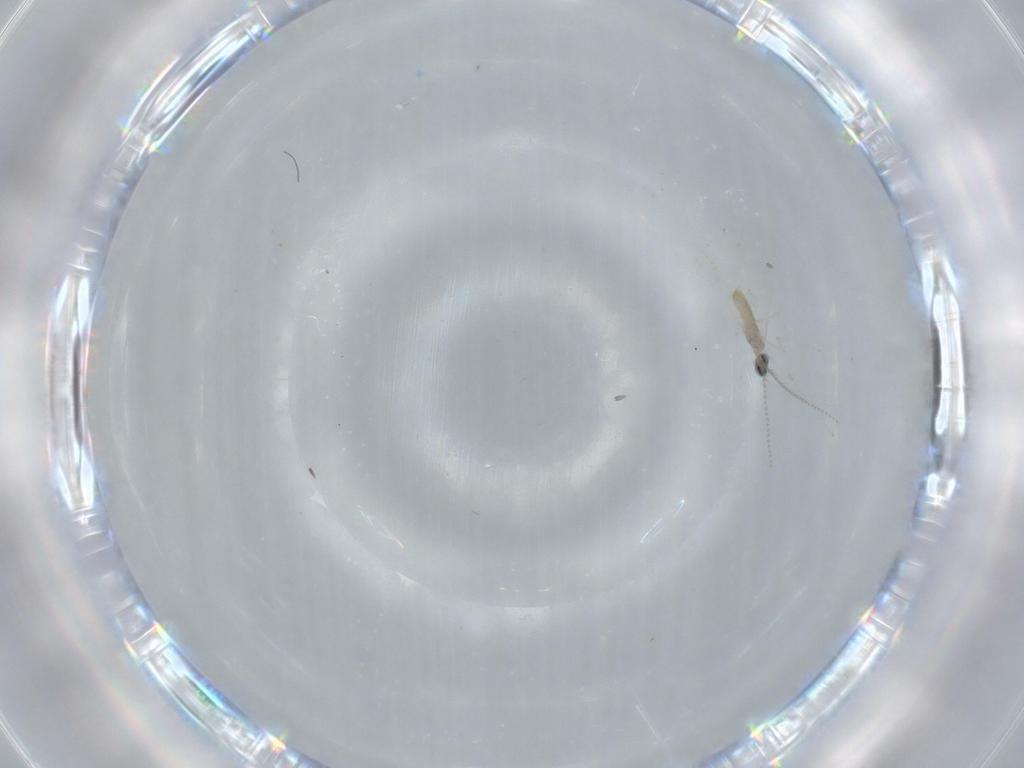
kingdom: Animalia
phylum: Arthropoda
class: Insecta
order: Diptera
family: Cecidomyiidae
